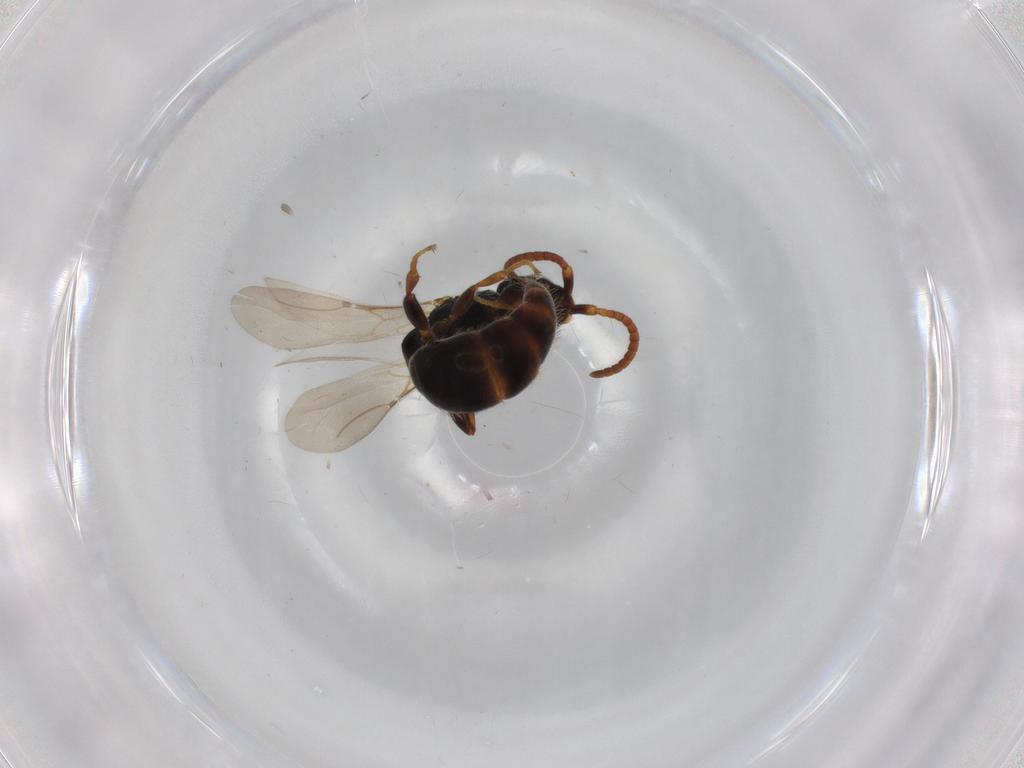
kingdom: Animalia
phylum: Arthropoda
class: Insecta
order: Hymenoptera
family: Bethylidae
